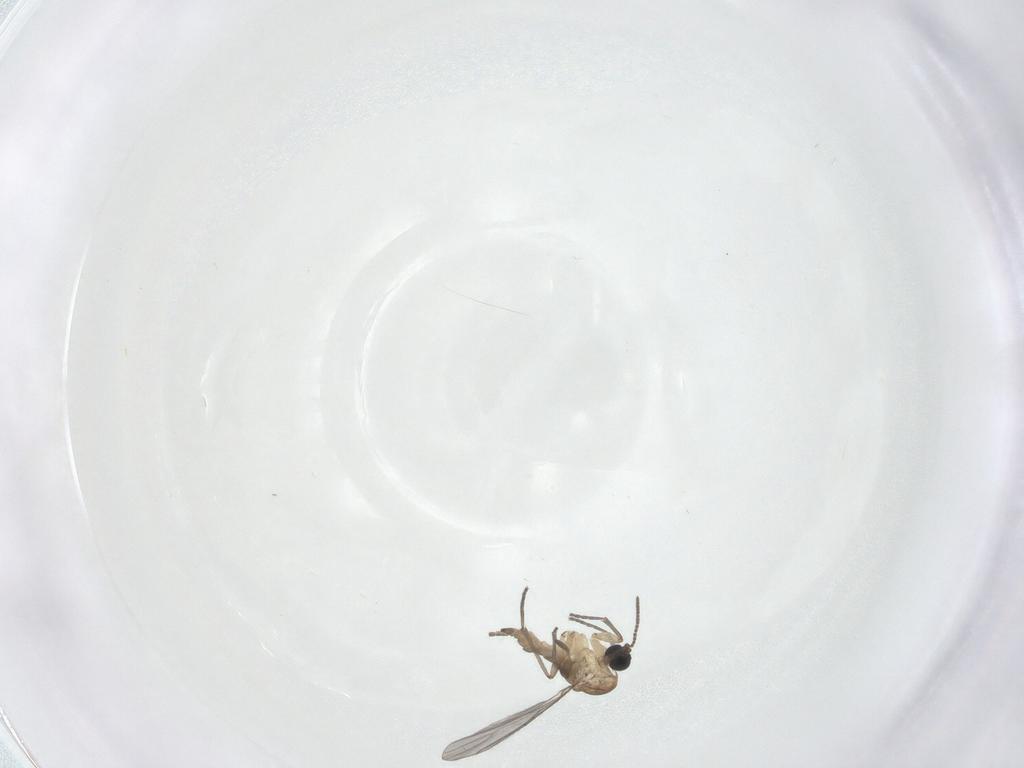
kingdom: Animalia
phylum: Arthropoda
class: Insecta
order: Diptera
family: Sciaridae
